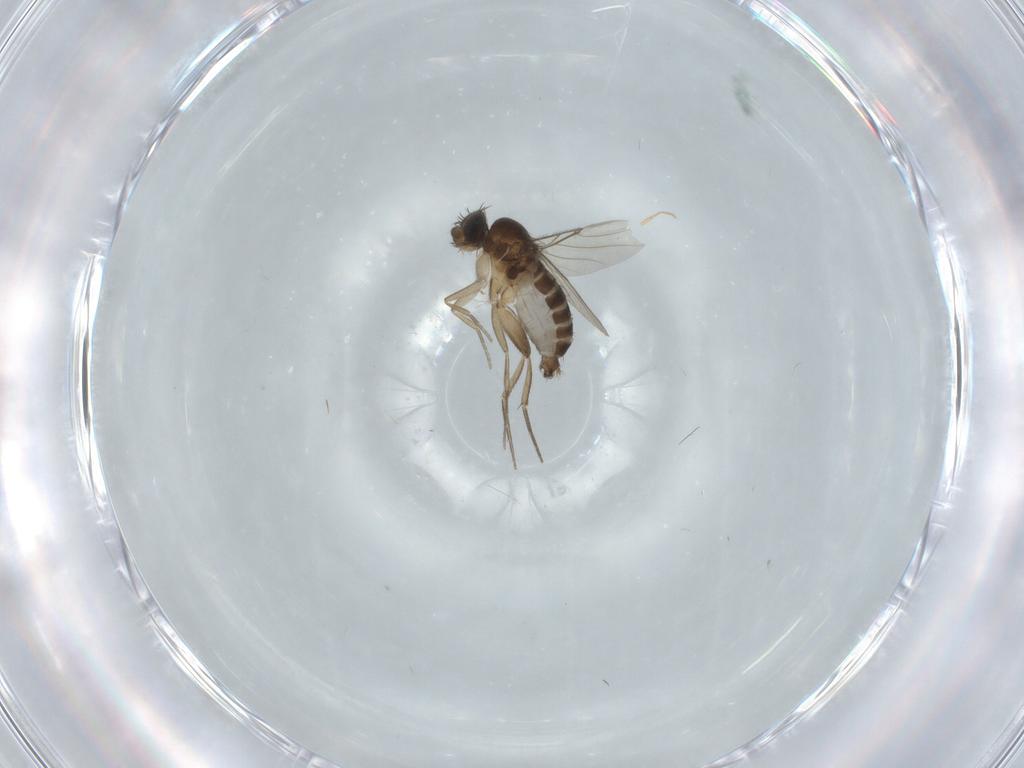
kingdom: Animalia
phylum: Arthropoda
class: Insecta
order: Diptera
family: Phoridae
